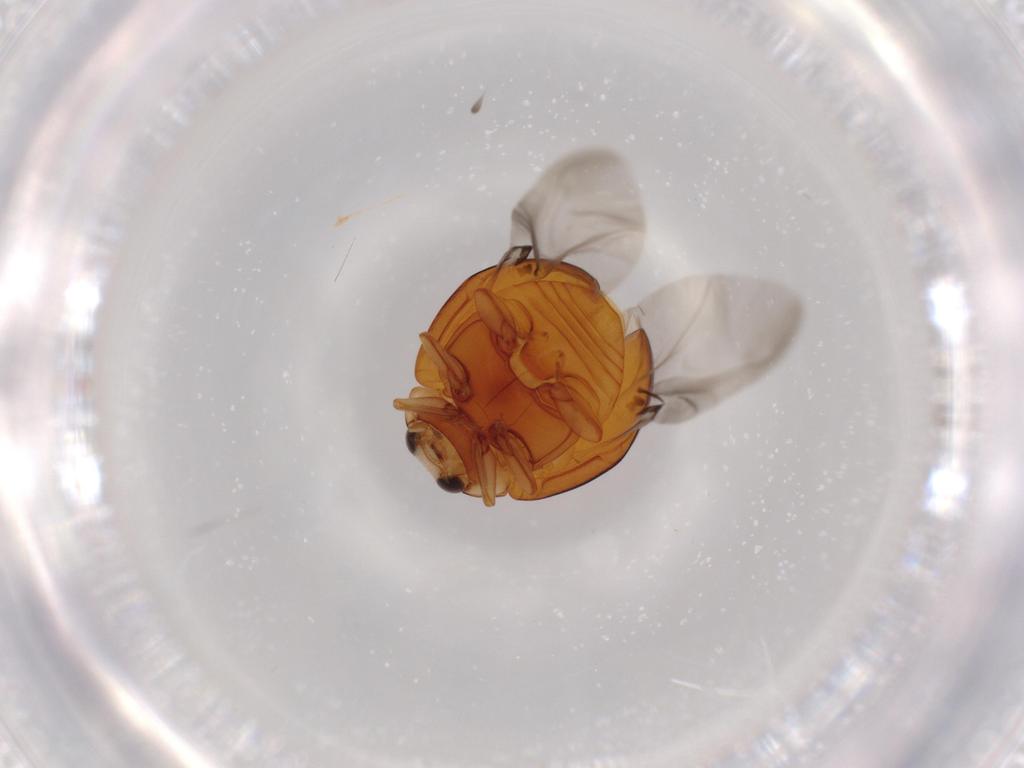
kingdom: Animalia
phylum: Arthropoda
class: Insecta
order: Coleoptera
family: Coccinellidae
